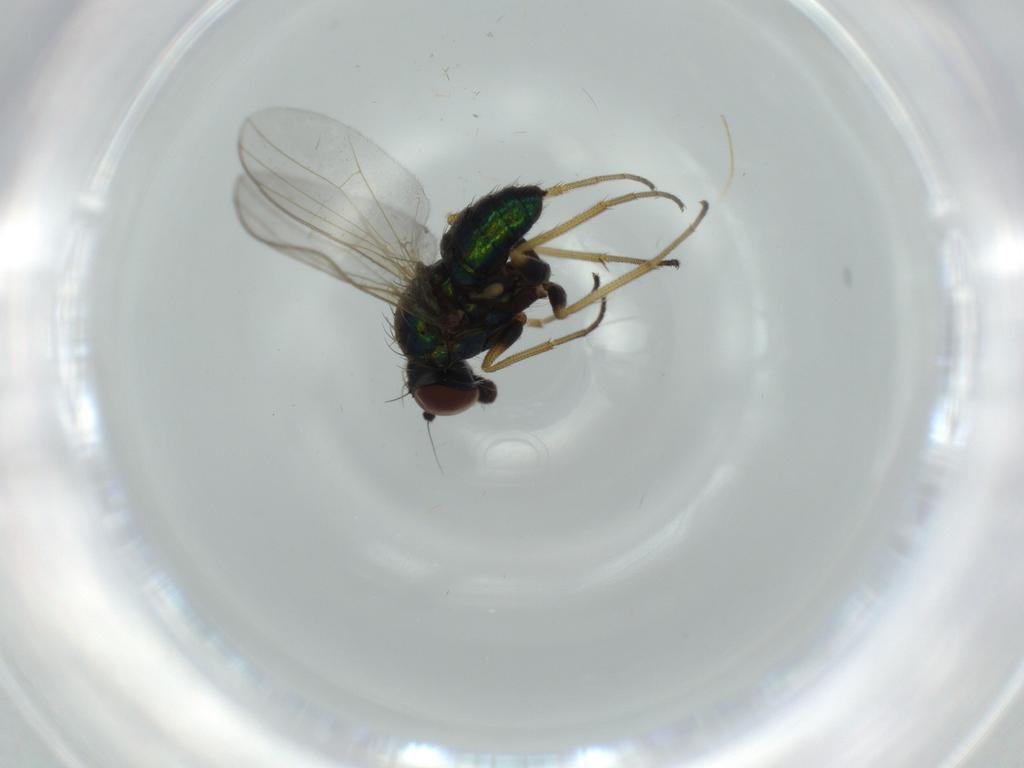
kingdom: Animalia
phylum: Arthropoda
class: Insecta
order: Diptera
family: Dolichopodidae
